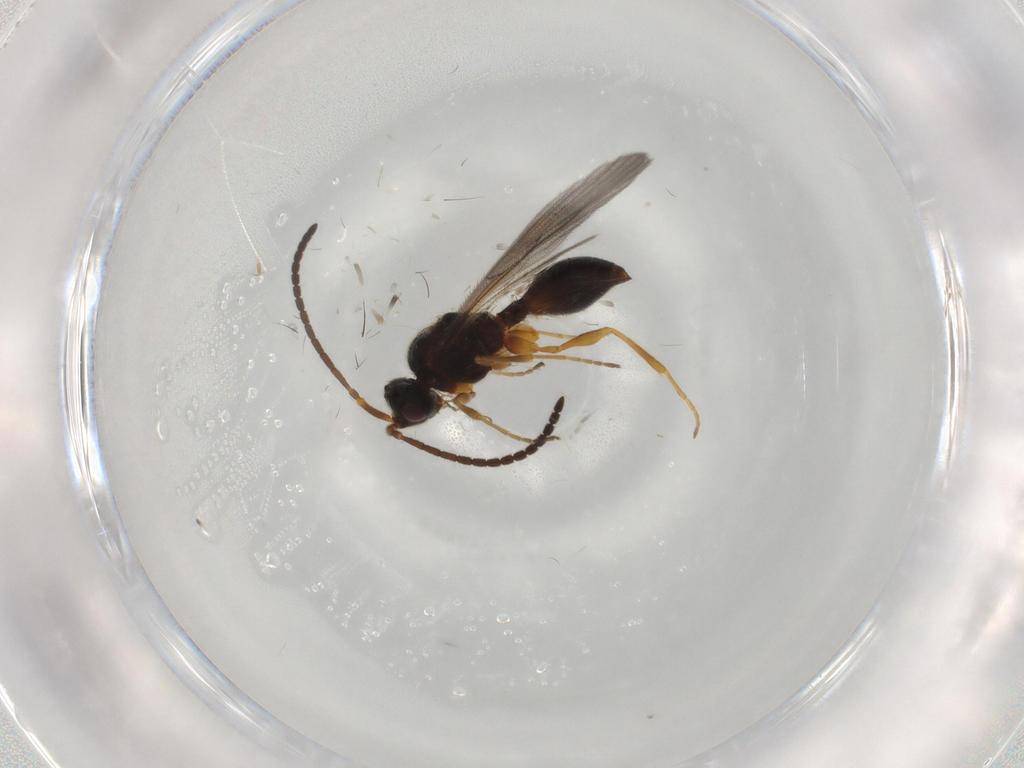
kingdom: Animalia
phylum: Arthropoda
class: Insecta
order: Hymenoptera
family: Diapriidae
